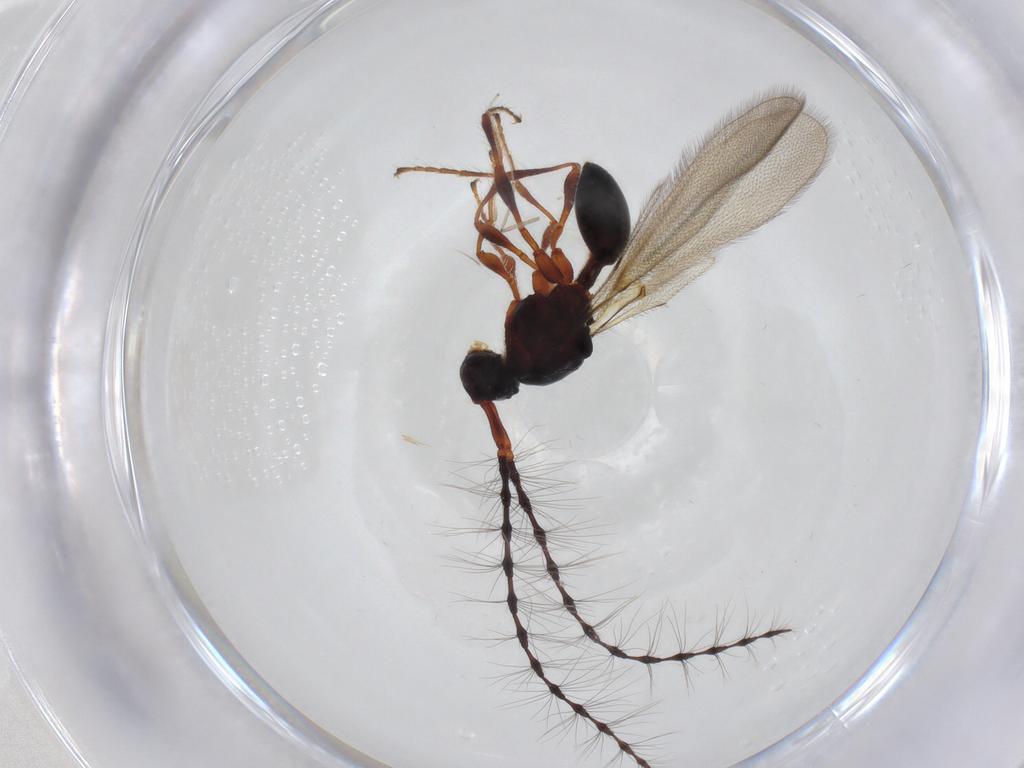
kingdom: Animalia
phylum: Arthropoda
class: Insecta
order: Hymenoptera
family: Diapriidae
